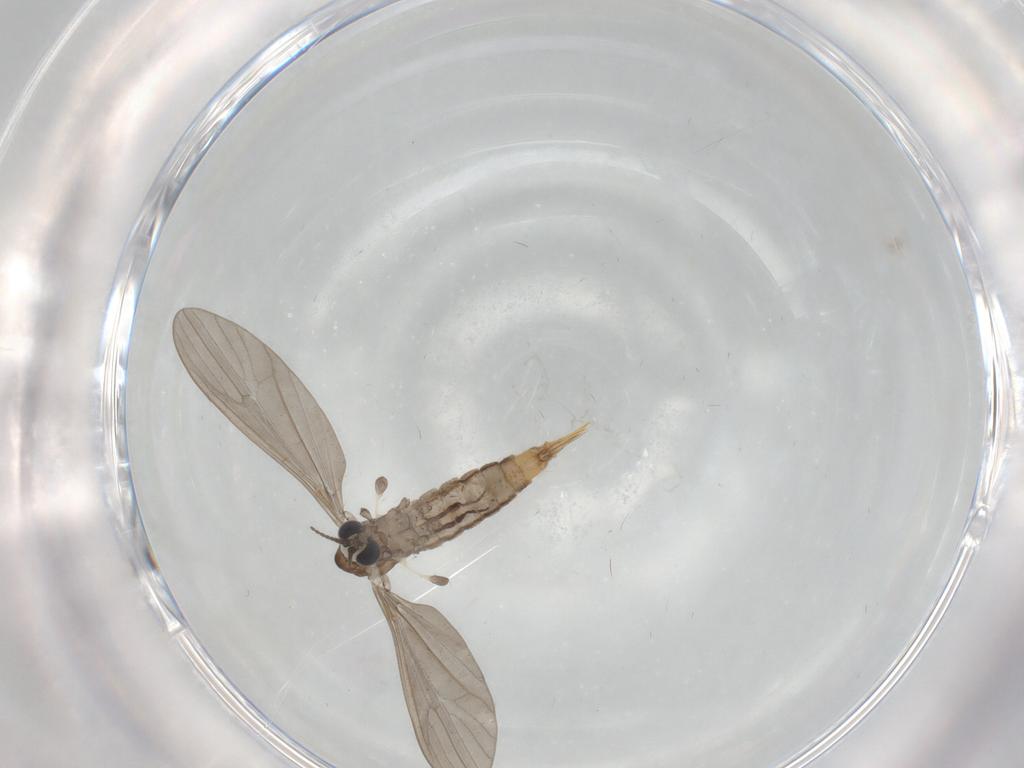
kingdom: Animalia
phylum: Arthropoda
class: Insecta
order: Diptera
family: Limoniidae
